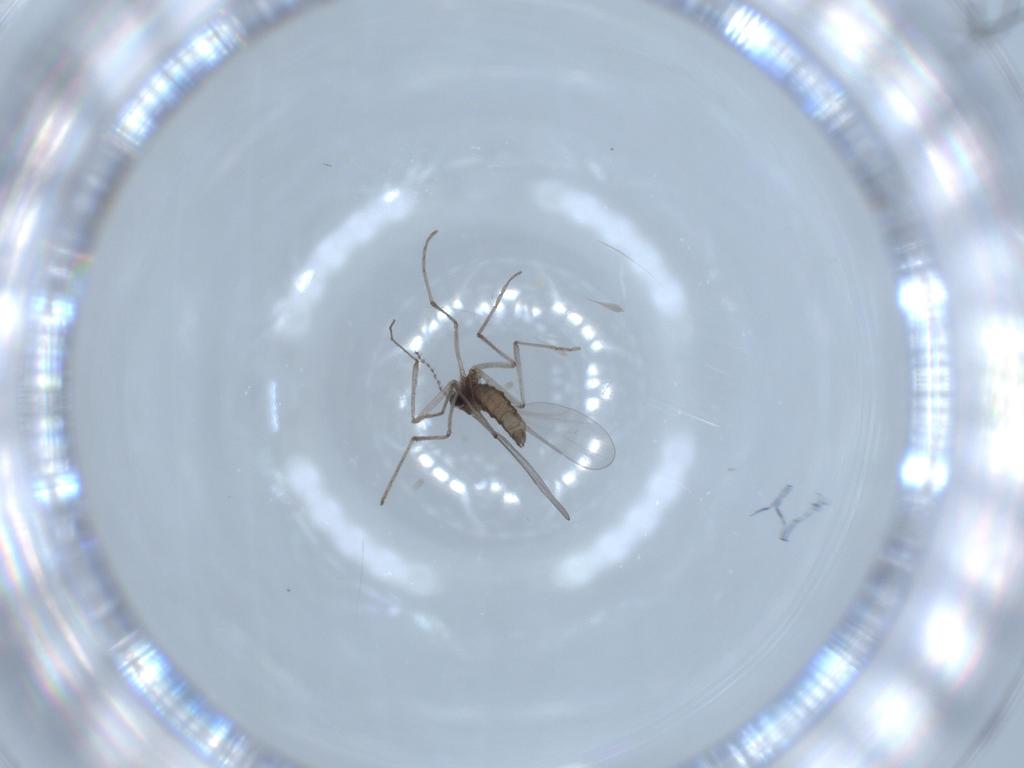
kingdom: Animalia
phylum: Arthropoda
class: Insecta
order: Diptera
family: Cecidomyiidae
